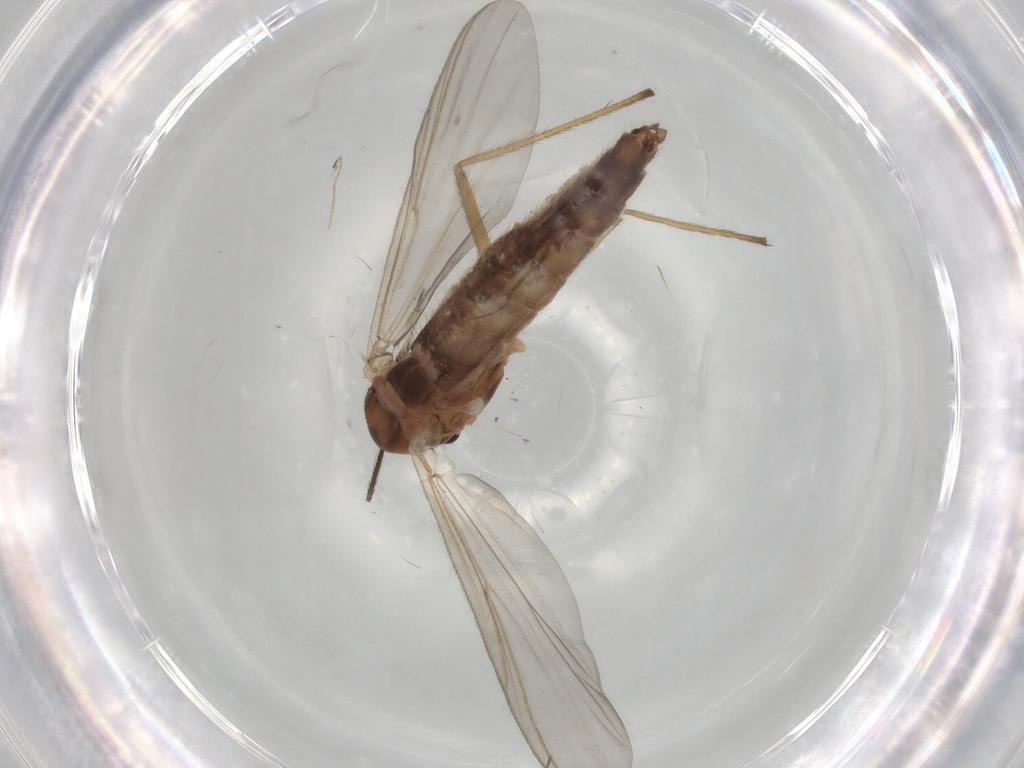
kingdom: Animalia
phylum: Arthropoda
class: Insecta
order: Diptera
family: Chironomidae
